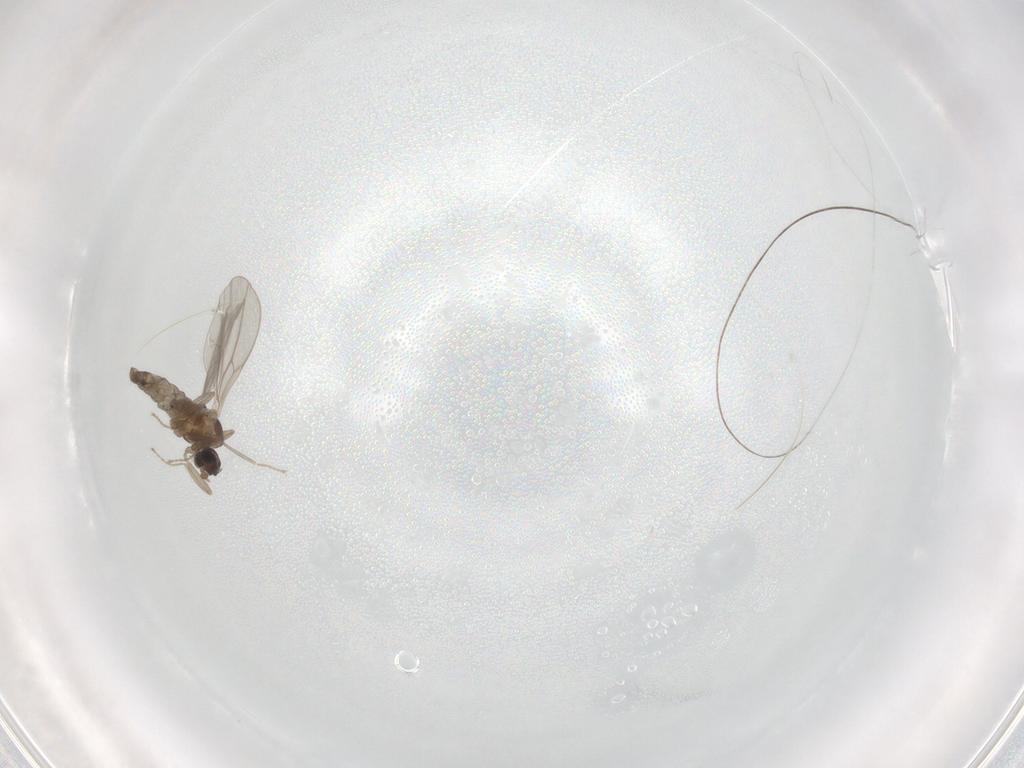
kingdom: Animalia
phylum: Arthropoda
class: Insecta
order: Diptera
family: Cecidomyiidae
